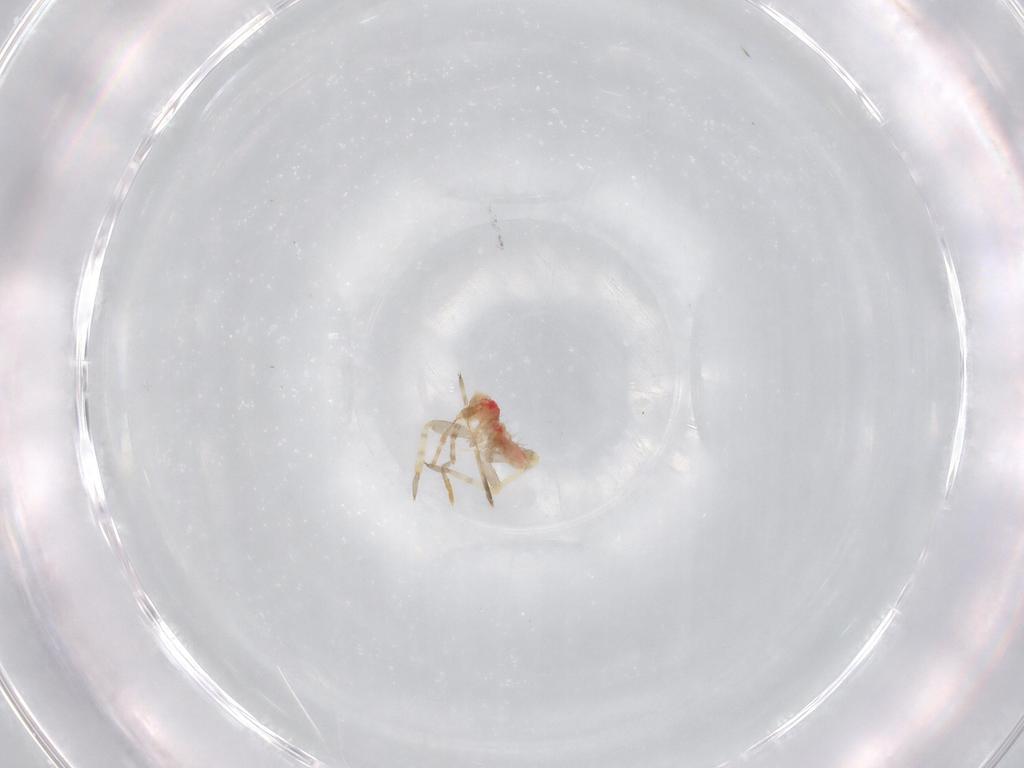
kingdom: Animalia
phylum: Arthropoda
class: Insecta
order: Hemiptera
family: Miridae
